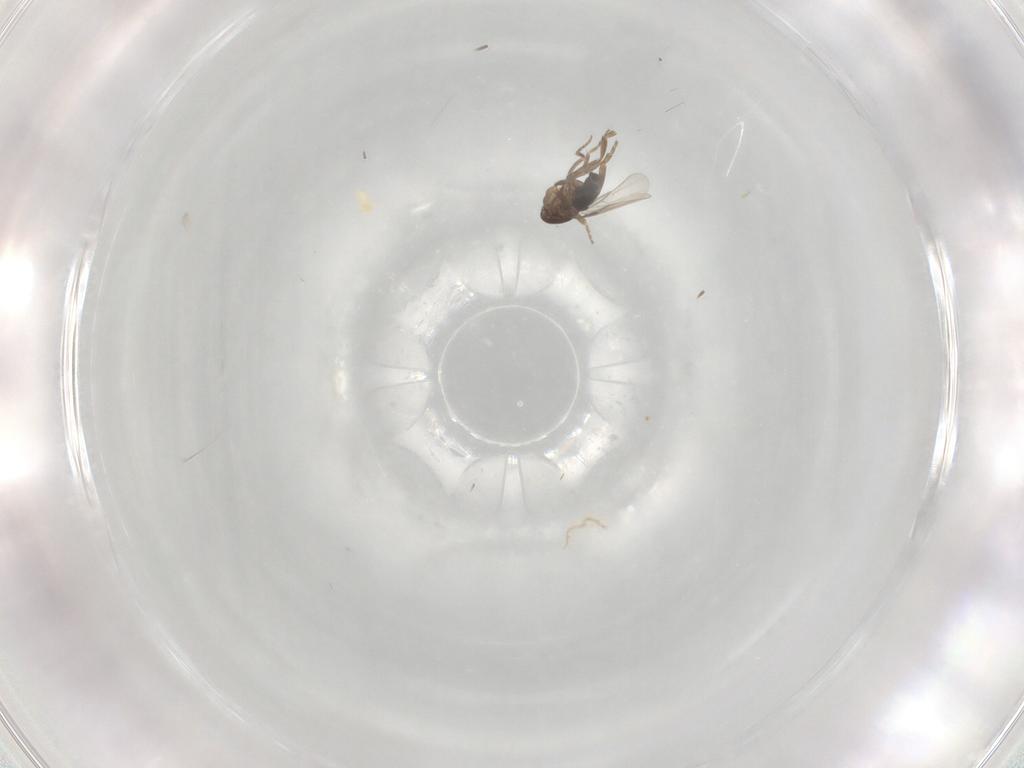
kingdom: Animalia
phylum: Arthropoda
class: Insecta
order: Diptera
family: Phoridae
